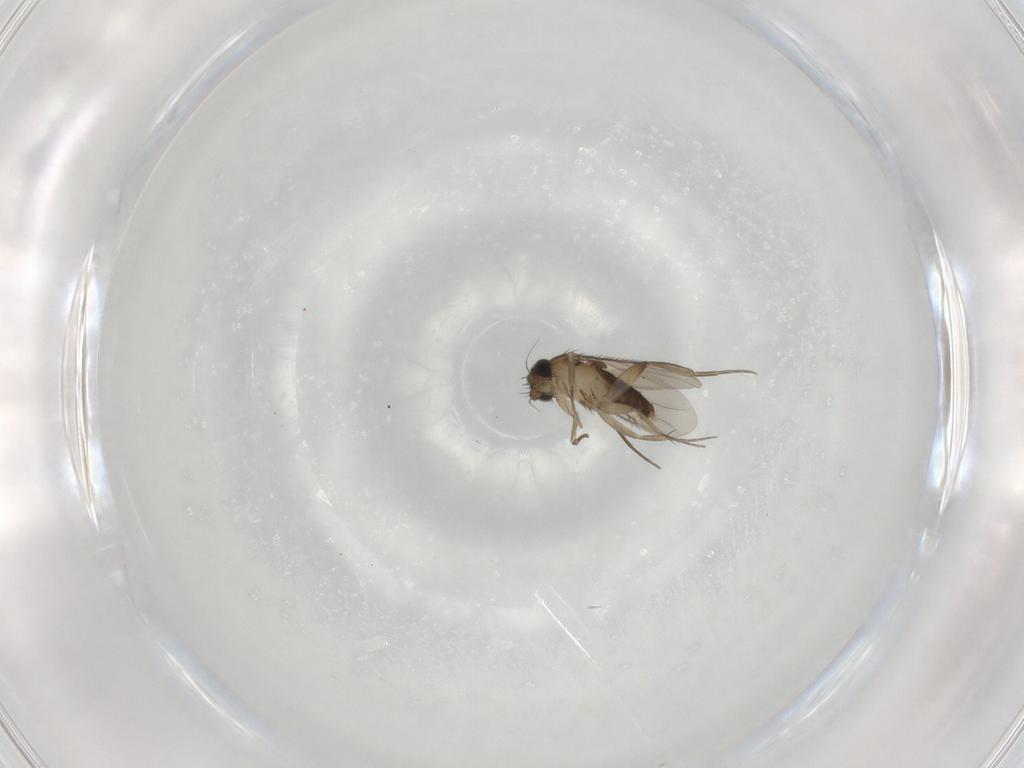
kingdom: Animalia
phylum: Arthropoda
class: Insecta
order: Diptera
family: Phoridae
